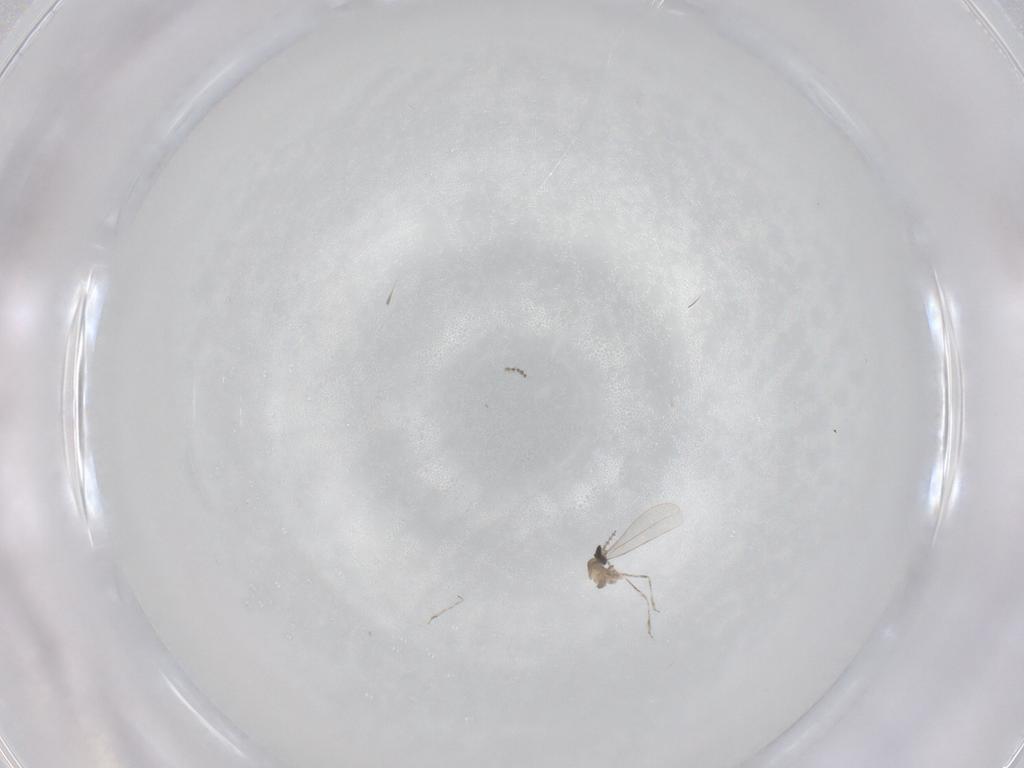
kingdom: Animalia
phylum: Arthropoda
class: Insecta
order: Diptera
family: Cecidomyiidae
